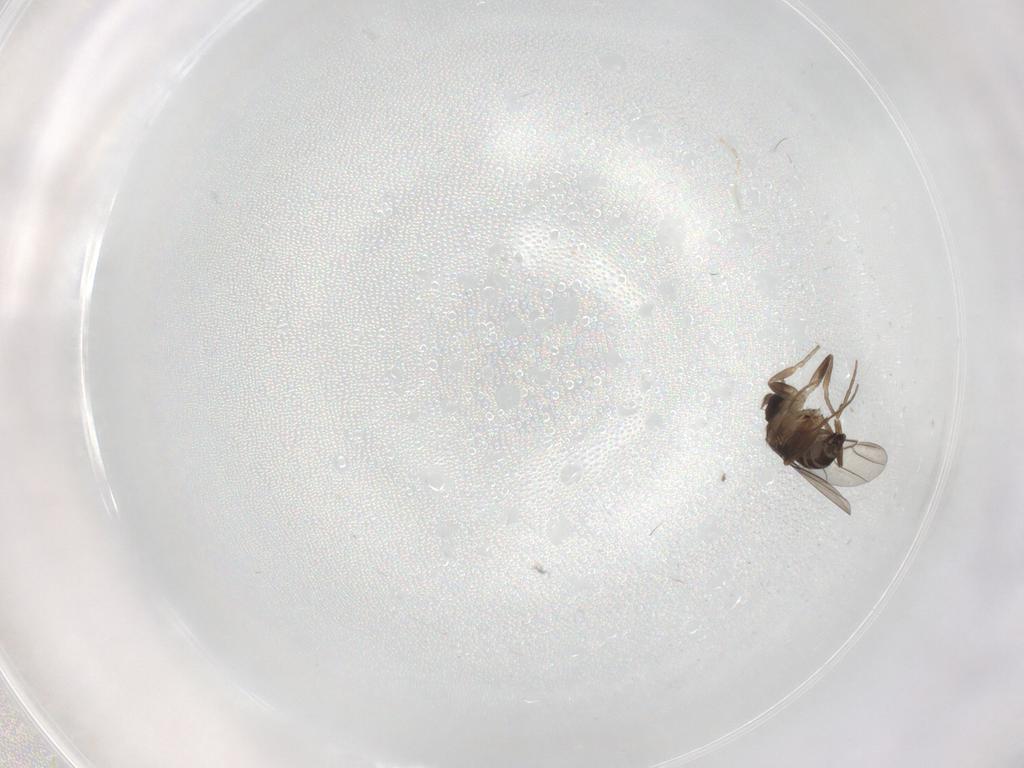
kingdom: Animalia
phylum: Arthropoda
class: Insecta
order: Diptera
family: Phoridae
